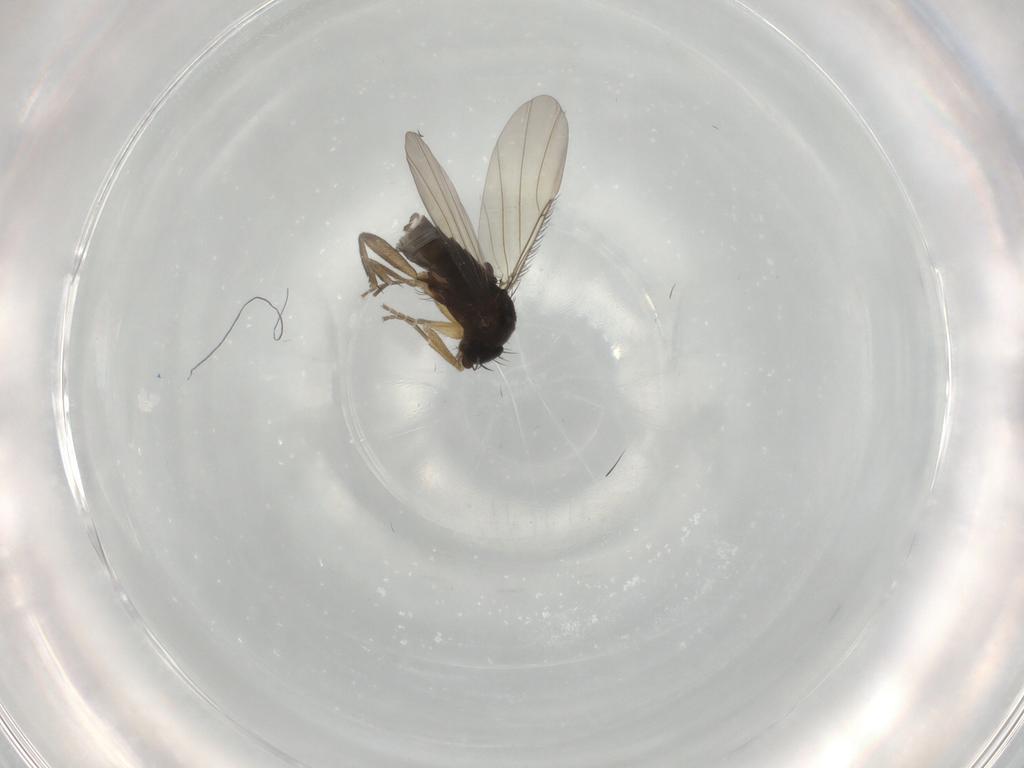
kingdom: Animalia
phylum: Arthropoda
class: Insecta
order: Diptera
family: Phoridae
